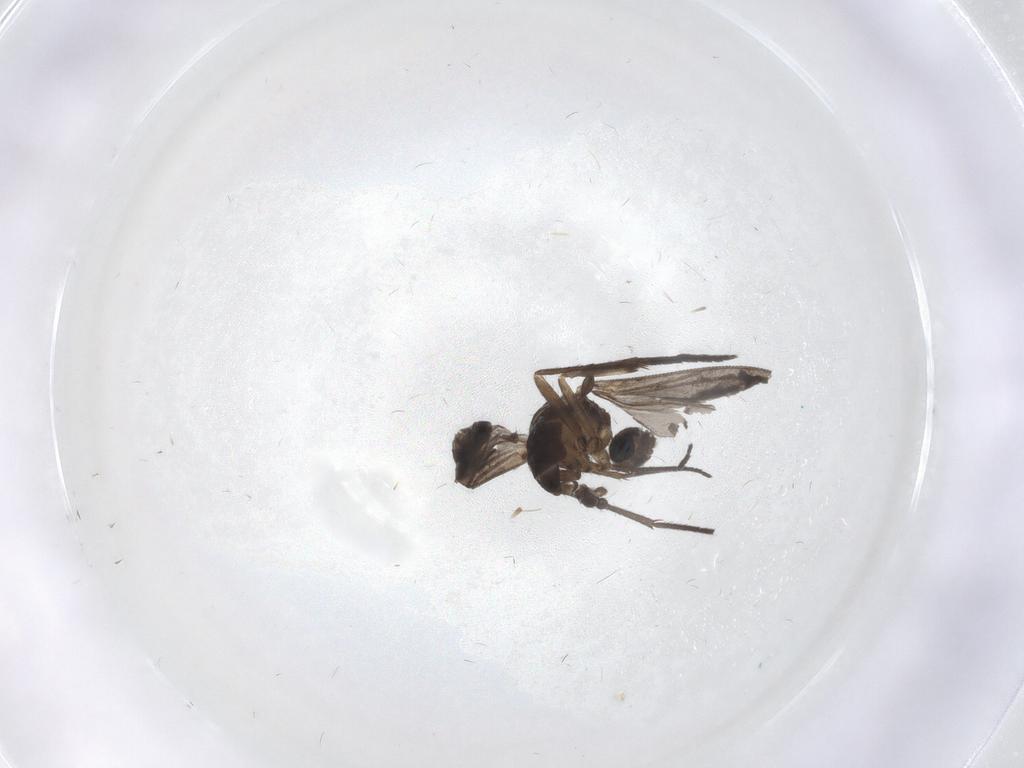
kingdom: Animalia
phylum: Arthropoda
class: Insecta
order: Diptera
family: Sciaridae
